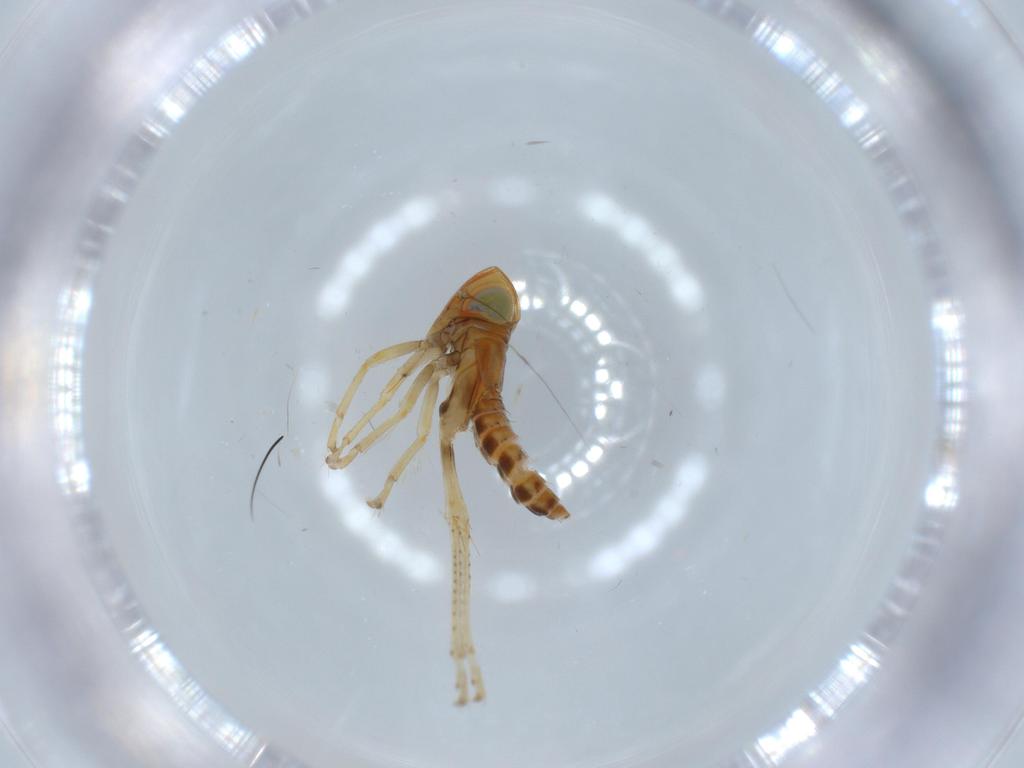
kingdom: Animalia
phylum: Arthropoda
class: Insecta
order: Hemiptera
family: Cicadellidae
